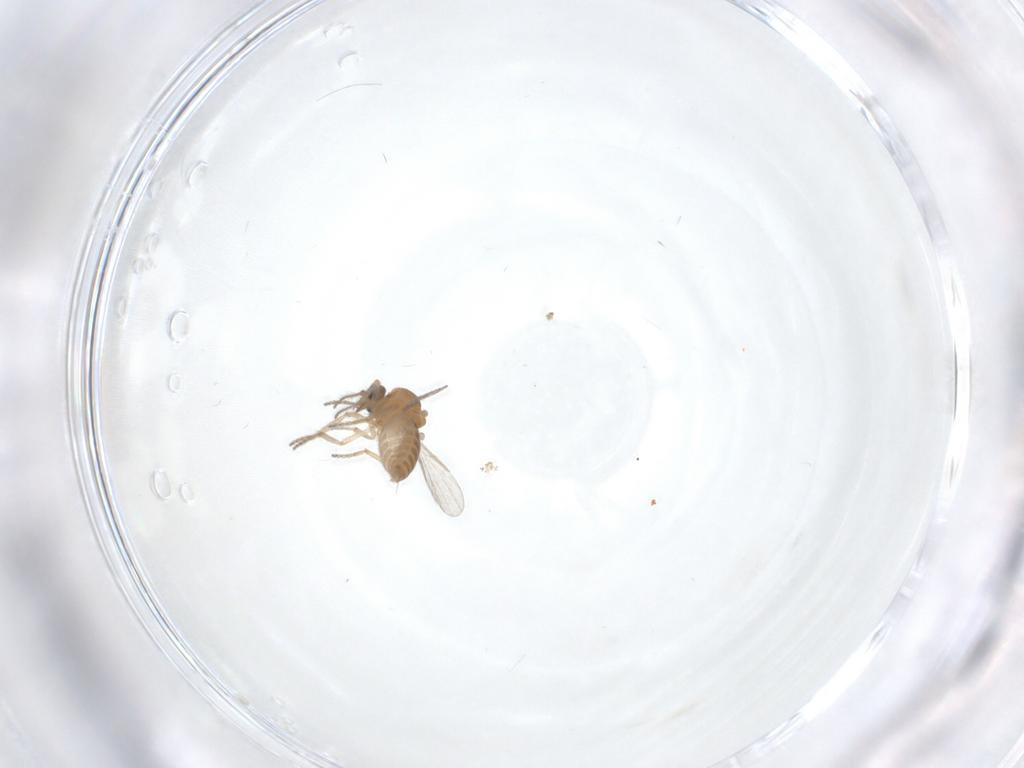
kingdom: Animalia
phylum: Arthropoda
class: Insecta
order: Diptera
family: Ceratopogonidae
